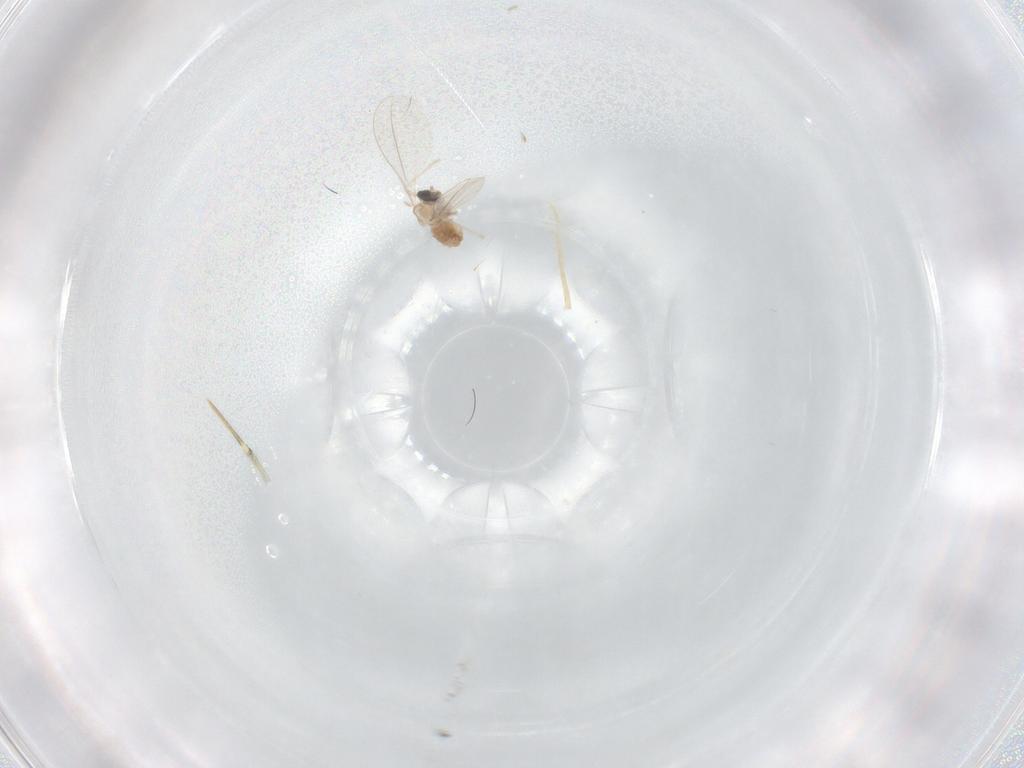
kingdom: Animalia
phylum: Arthropoda
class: Insecta
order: Diptera
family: Cecidomyiidae
